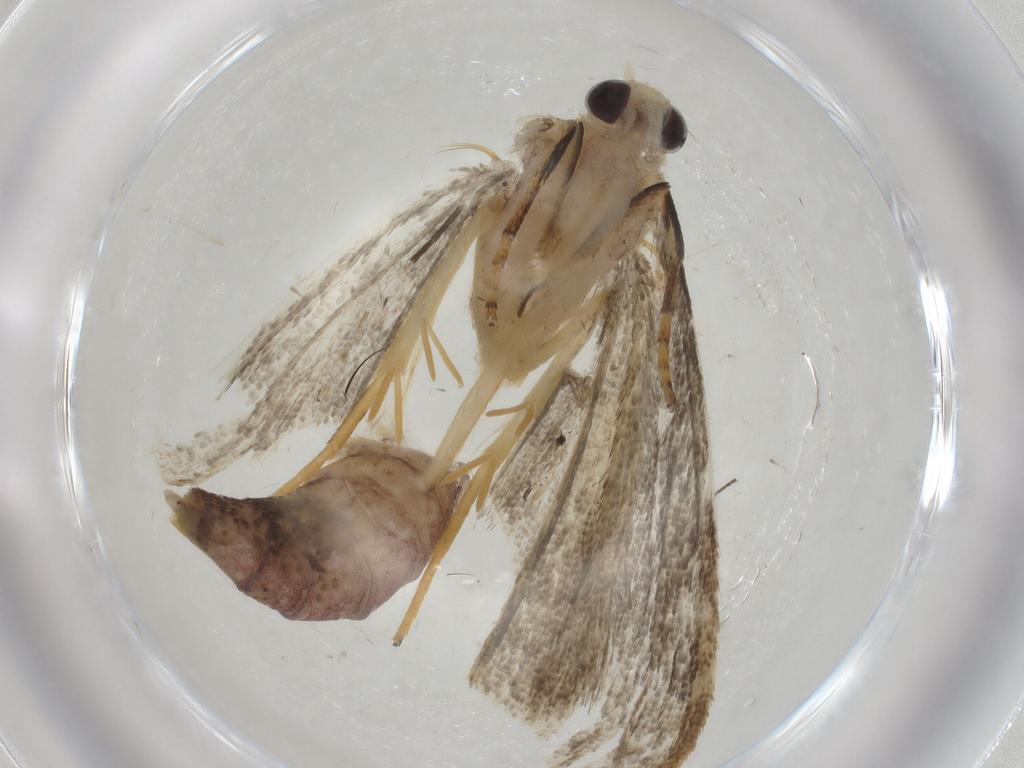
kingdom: Animalia
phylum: Arthropoda
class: Insecta
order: Lepidoptera
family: Crambidae
